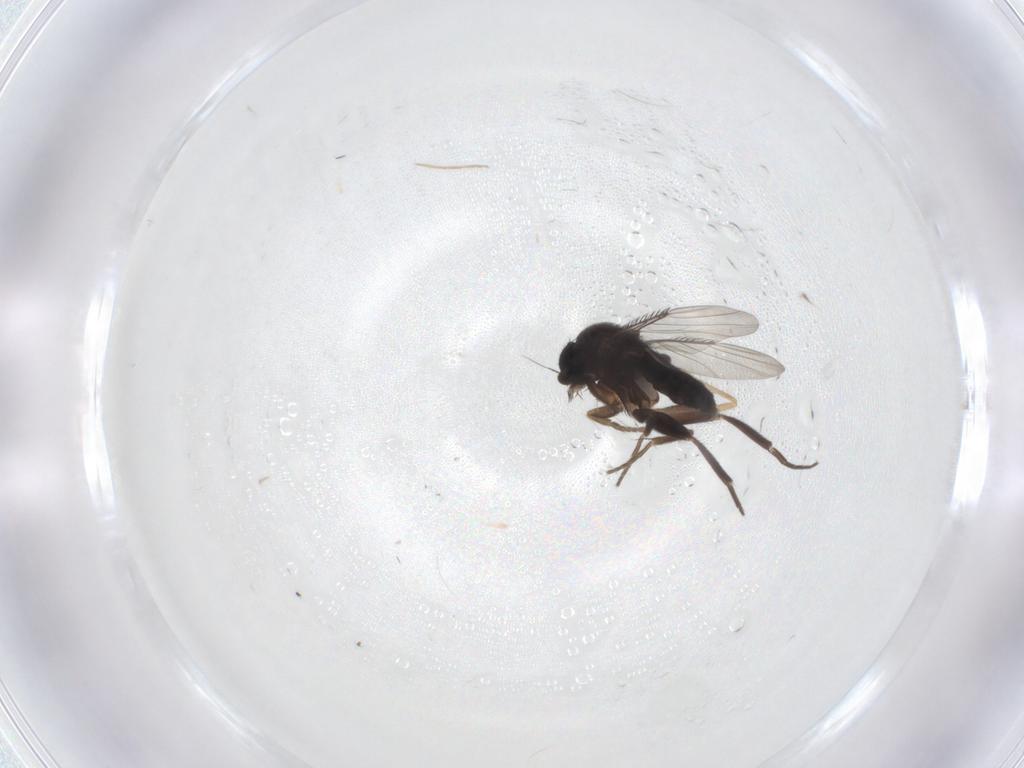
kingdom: Animalia
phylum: Arthropoda
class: Insecta
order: Diptera
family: Phoridae
